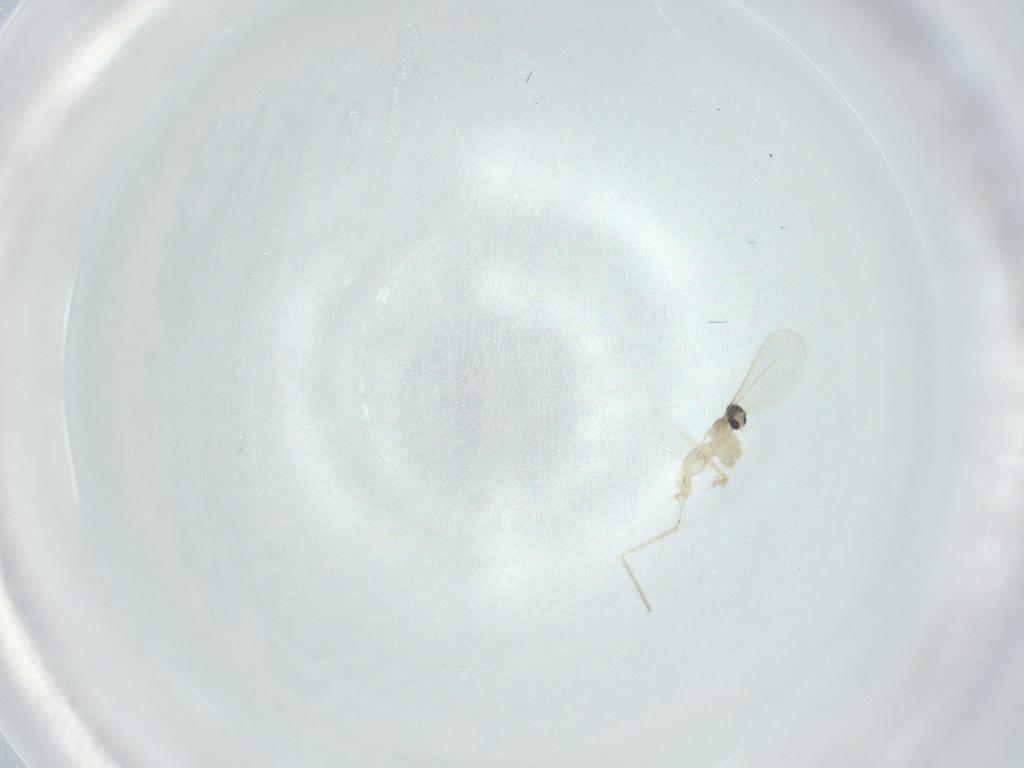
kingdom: Animalia
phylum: Arthropoda
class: Insecta
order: Diptera
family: Cecidomyiidae
